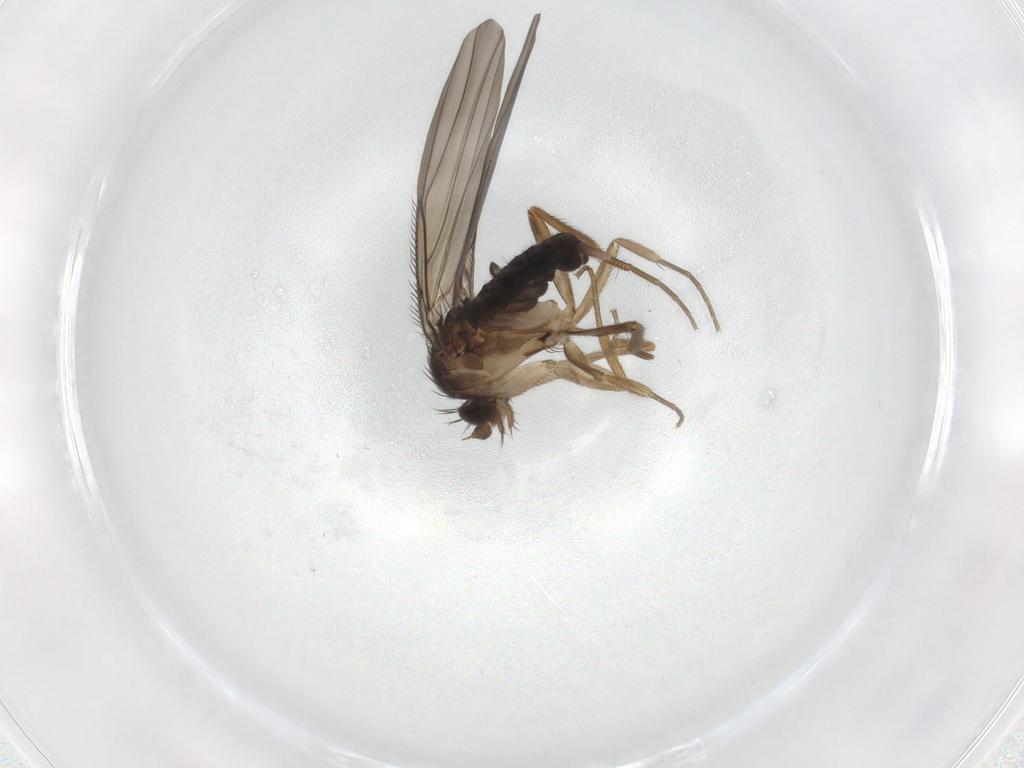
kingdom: Animalia
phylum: Arthropoda
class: Insecta
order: Diptera
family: Phoridae
